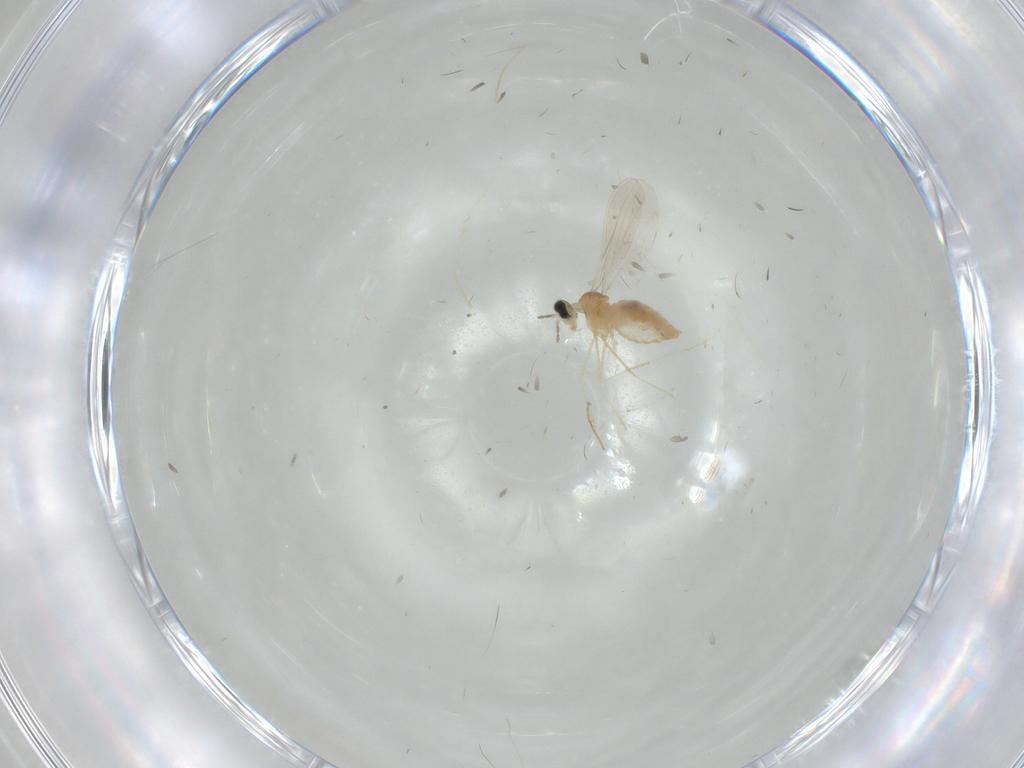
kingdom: Animalia
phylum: Arthropoda
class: Insecta
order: Diptera
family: Cecidomyiidae
